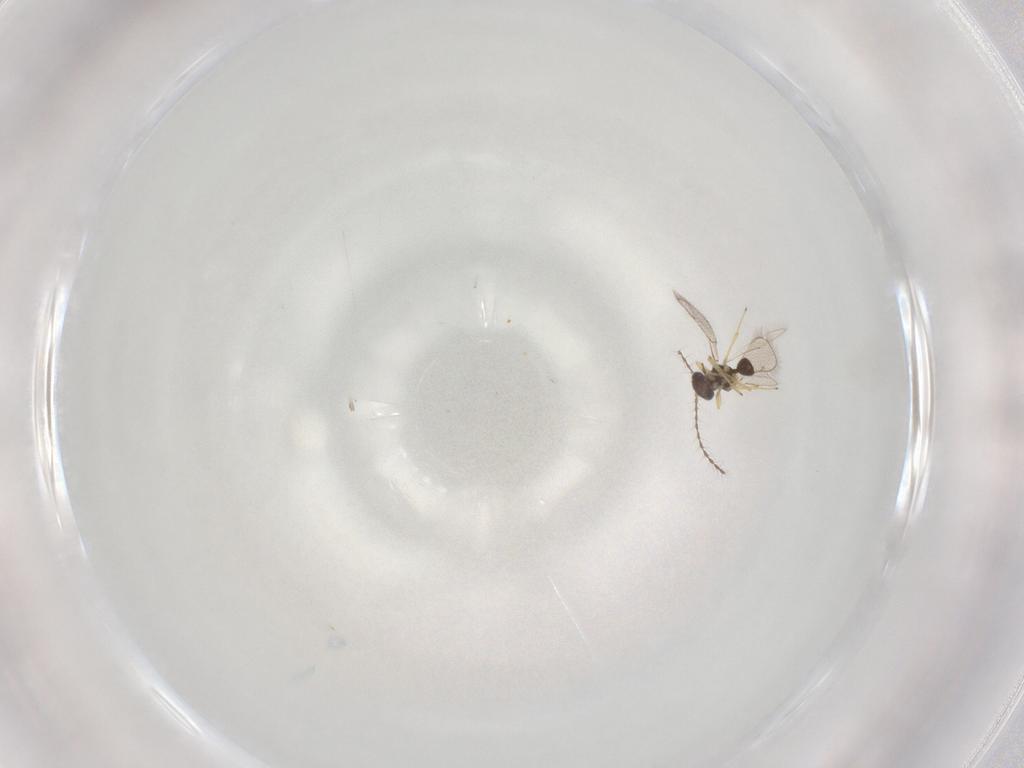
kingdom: Animalia
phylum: Arthropoda
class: Insecta
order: Hymenoptera
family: Diparidae
